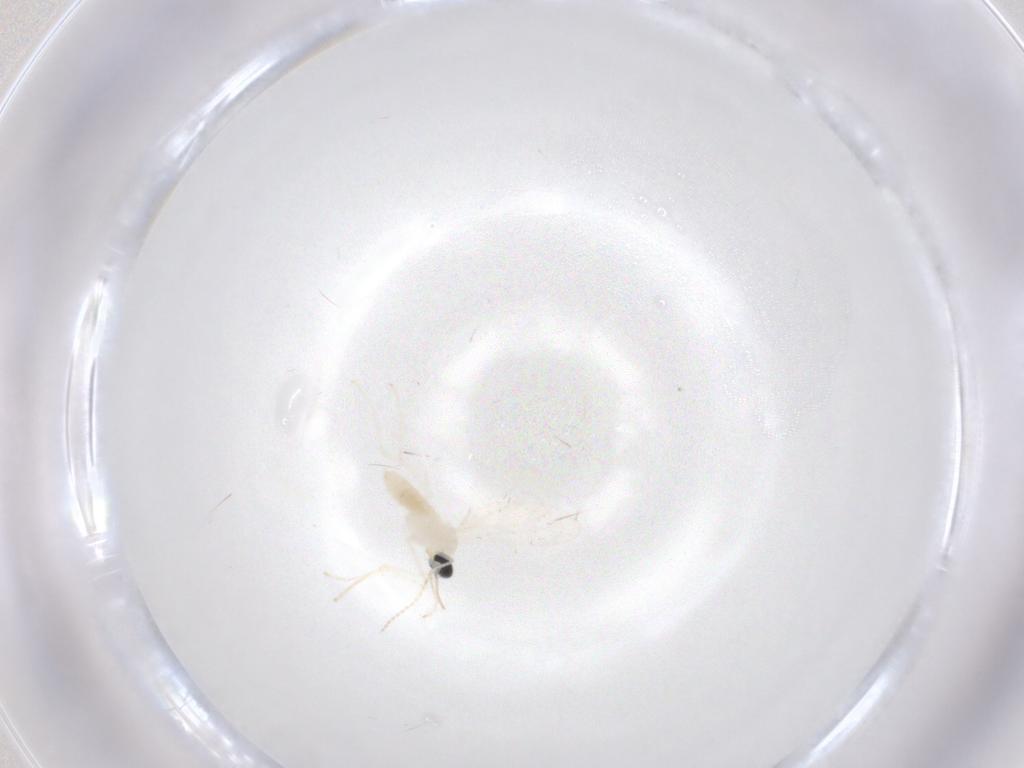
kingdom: Animalia
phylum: Arthropoda
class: Insecta
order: Diptera
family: Cecidomyiidae
